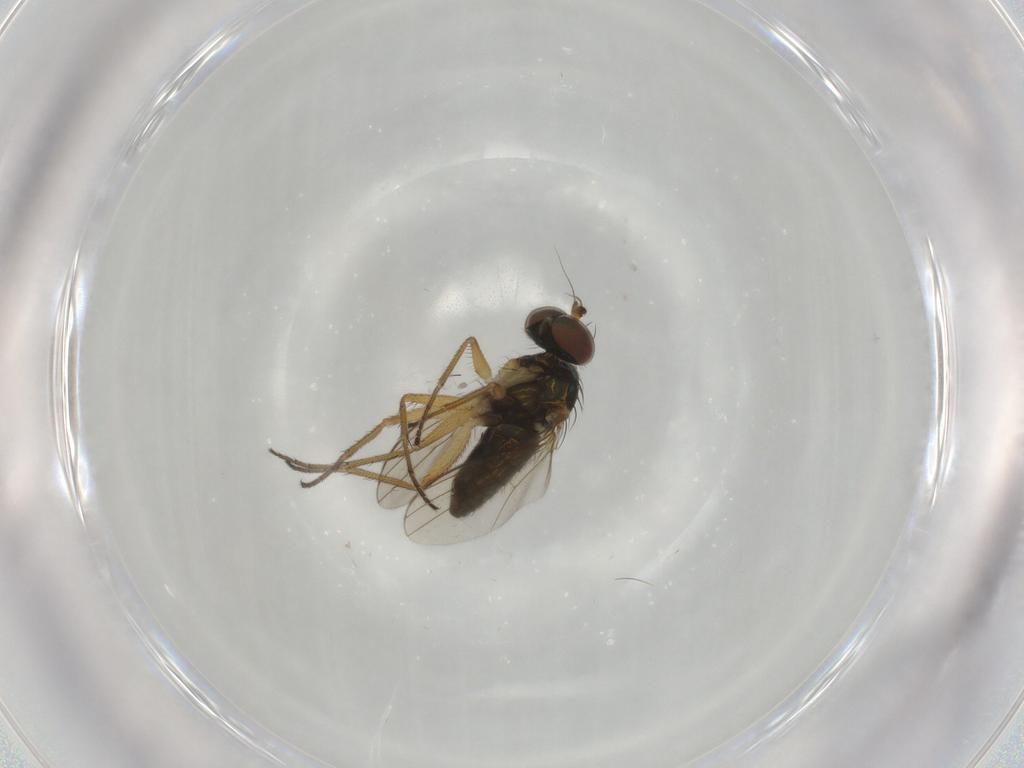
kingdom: Animalia
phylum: Arthropoda
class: Insecta
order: Diptera
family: Dolichopodidae
